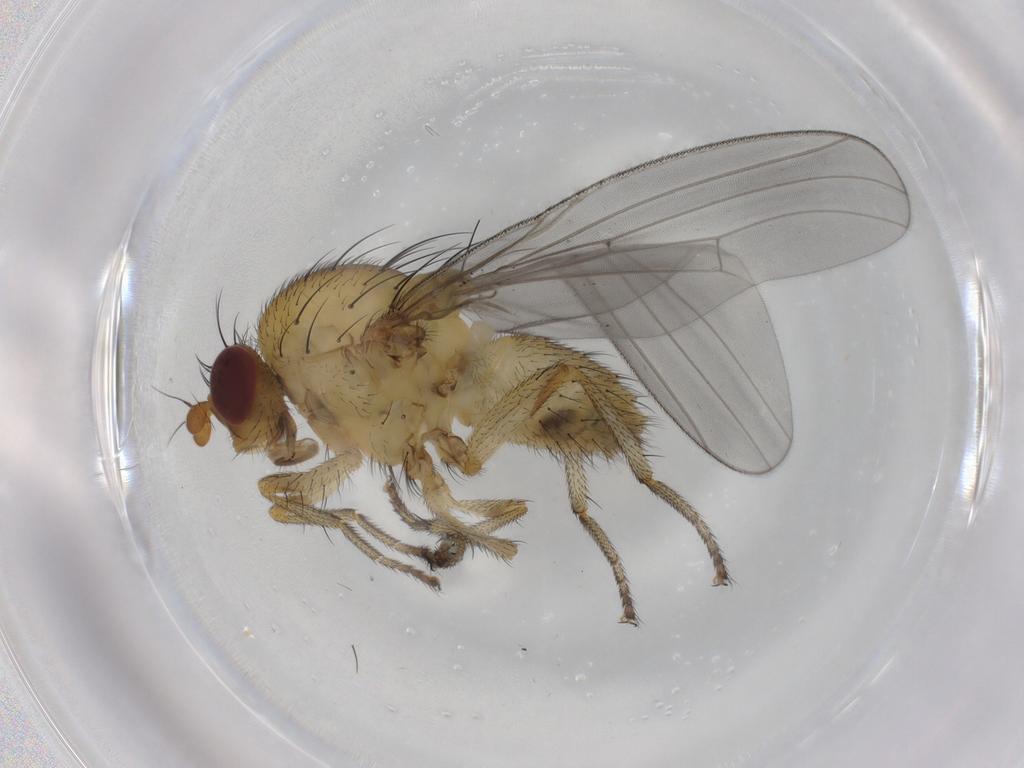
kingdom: Animalia
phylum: Arthropoda
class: Insecta
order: Diptera
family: Lauxaniidae
